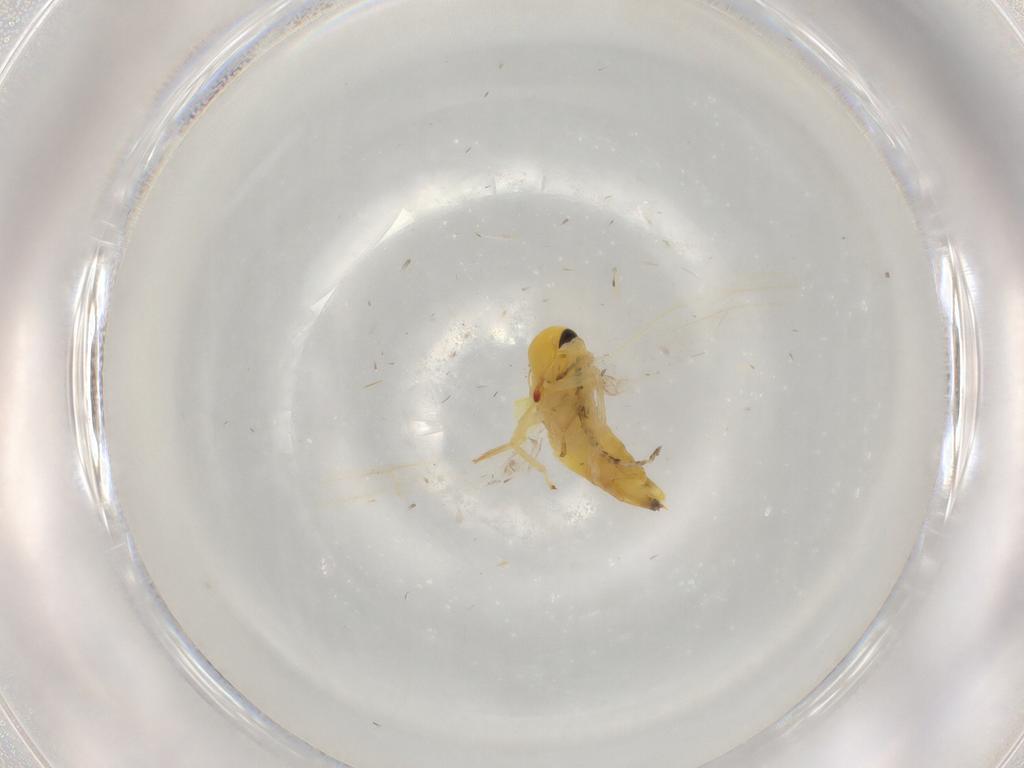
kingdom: Animalia
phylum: Arthropoda
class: Insecta
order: Hemiptera
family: Cicadellidae
